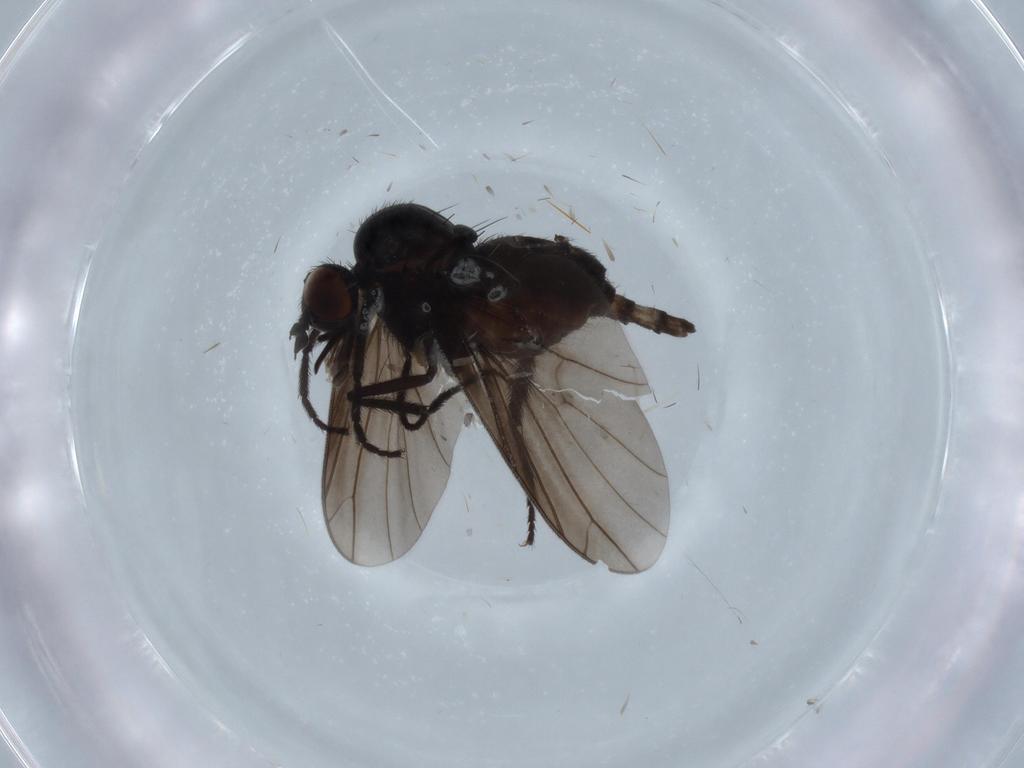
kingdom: Animalia
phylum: Arthropoda
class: Insecta
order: Diptera
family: Empididae
